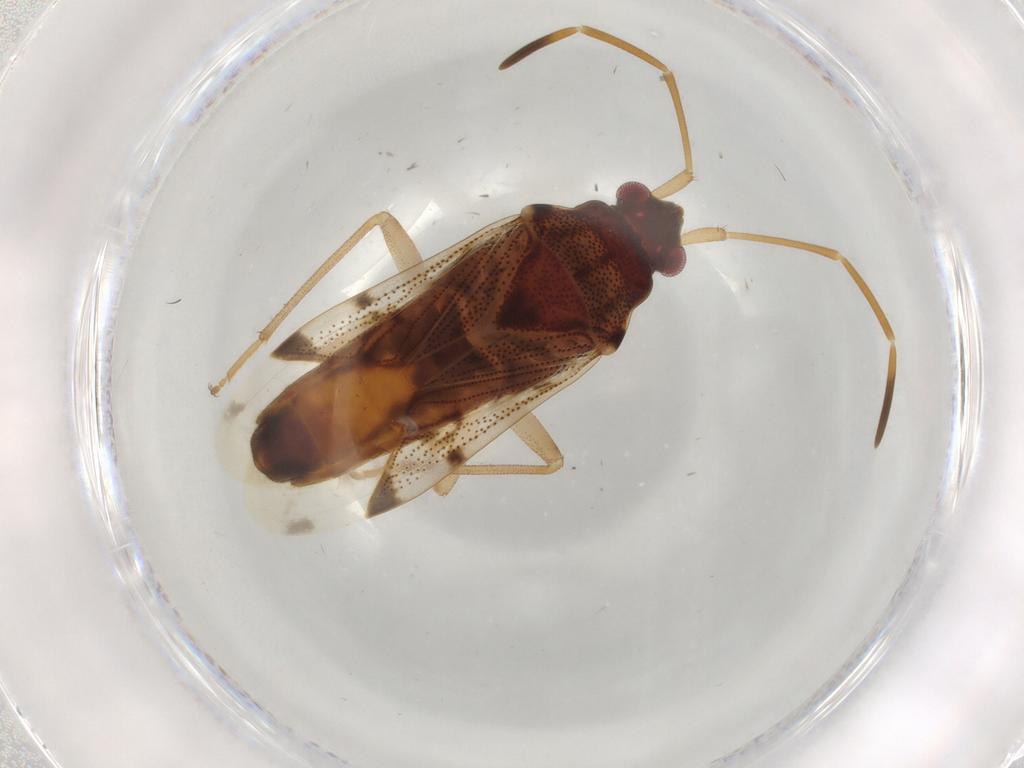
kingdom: Animalia
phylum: Arthropoda
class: Insecta
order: Hemiptera
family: Rhyparochromidae
